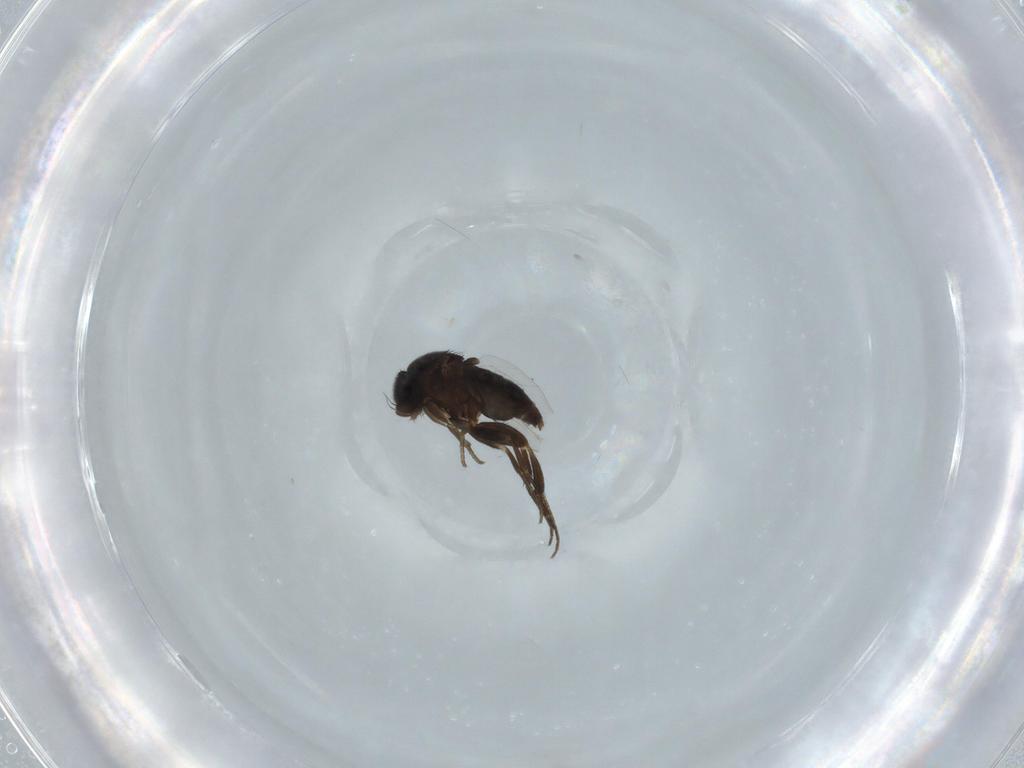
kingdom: Animalia
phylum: Arthropoda
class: Insecta
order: Diptera
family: Phoridae
